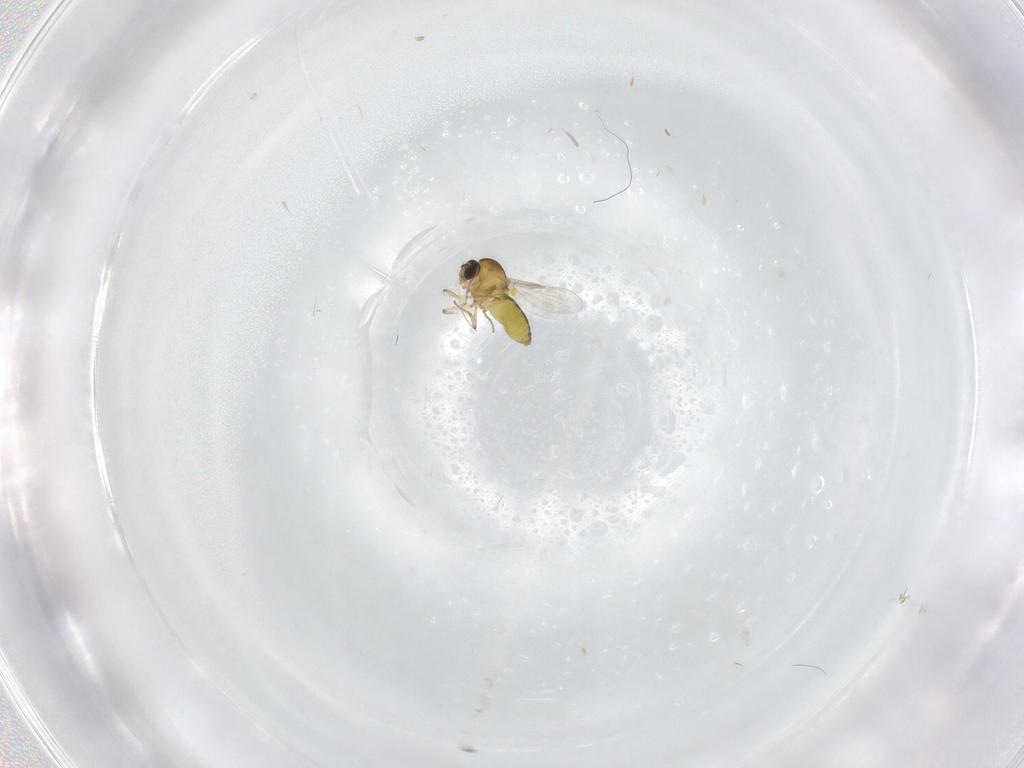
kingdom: Animalia
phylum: Arthropoda
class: Insecta
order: Diptera
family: Ceratopogonidae
